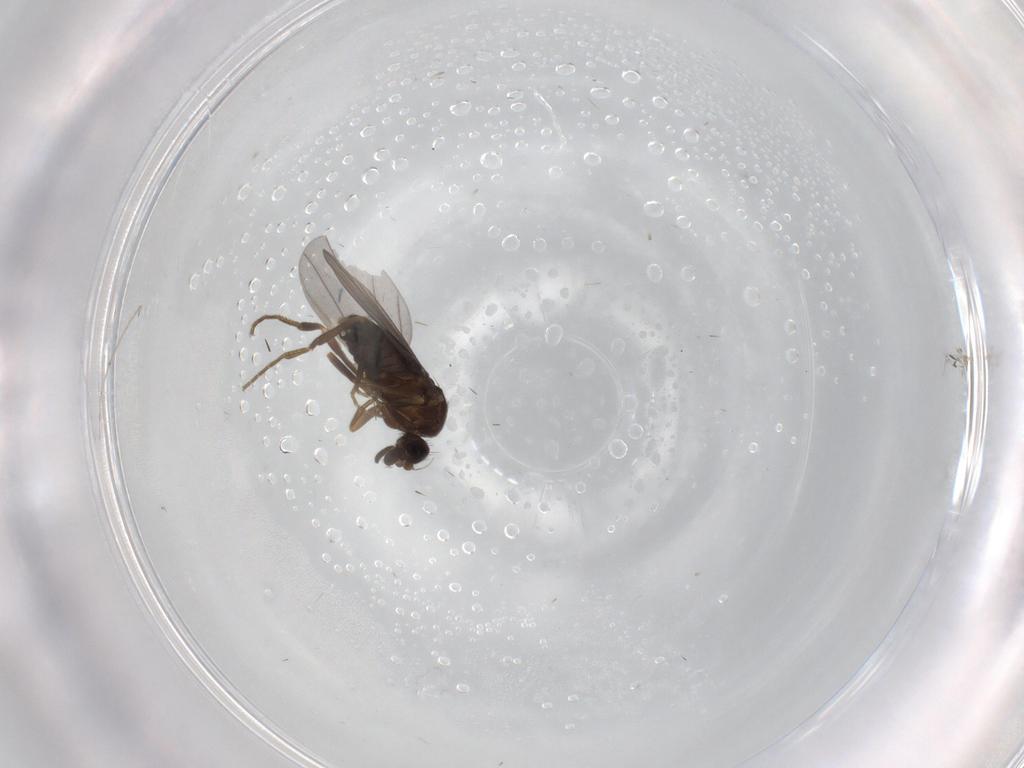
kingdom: Animalia
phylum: Arthropoda
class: Insecta
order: Diptera
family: Phoridae
